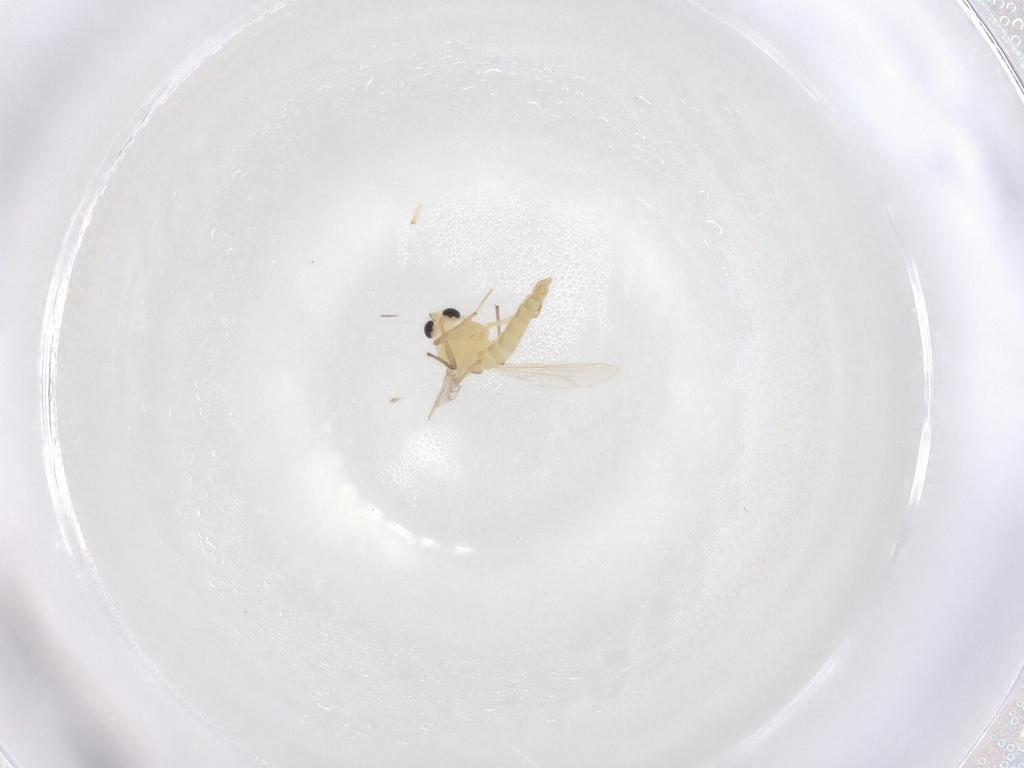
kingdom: Animalia
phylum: Arthropoda
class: Insecta
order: Diptera
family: Chironomidae
